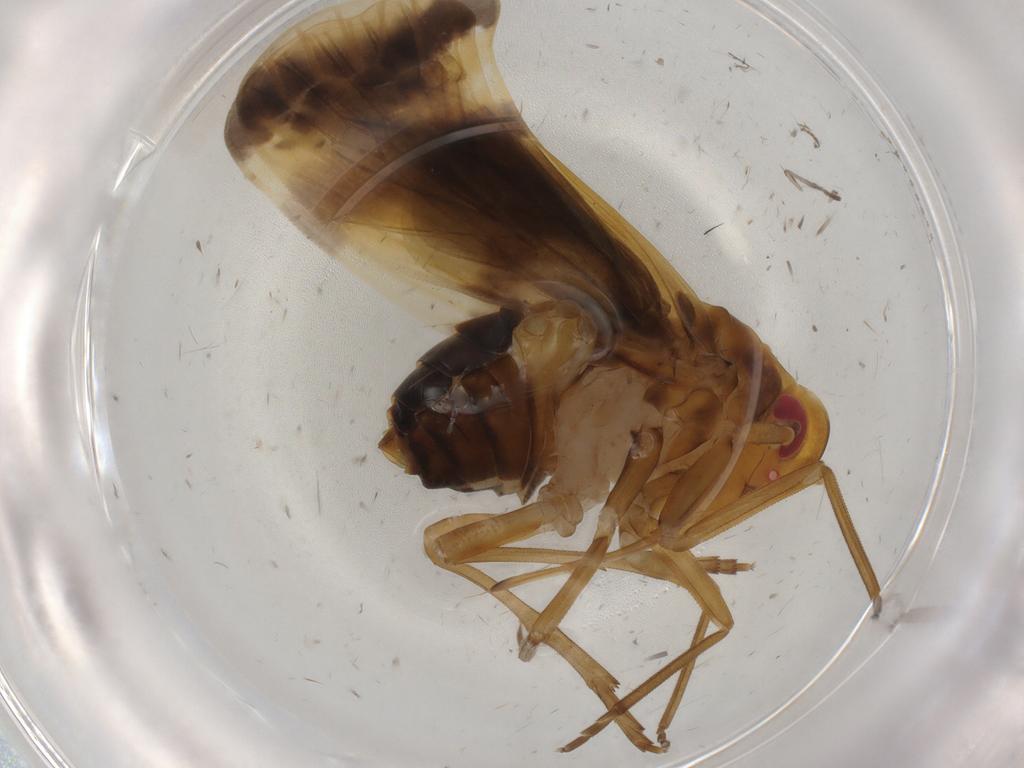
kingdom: Animalia
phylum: Arthropoda
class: Insecta
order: Hemiptera
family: Achilixiidae
